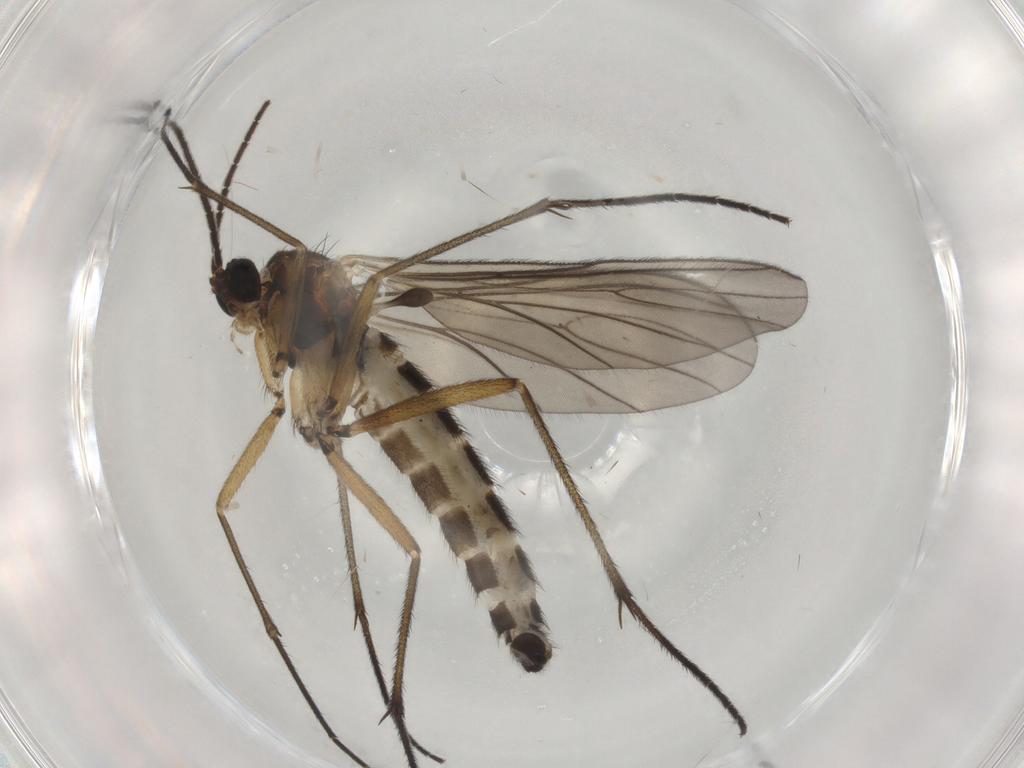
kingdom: Animalia
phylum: Arthropoda
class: Insecta
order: Diptera
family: Sciaridae
